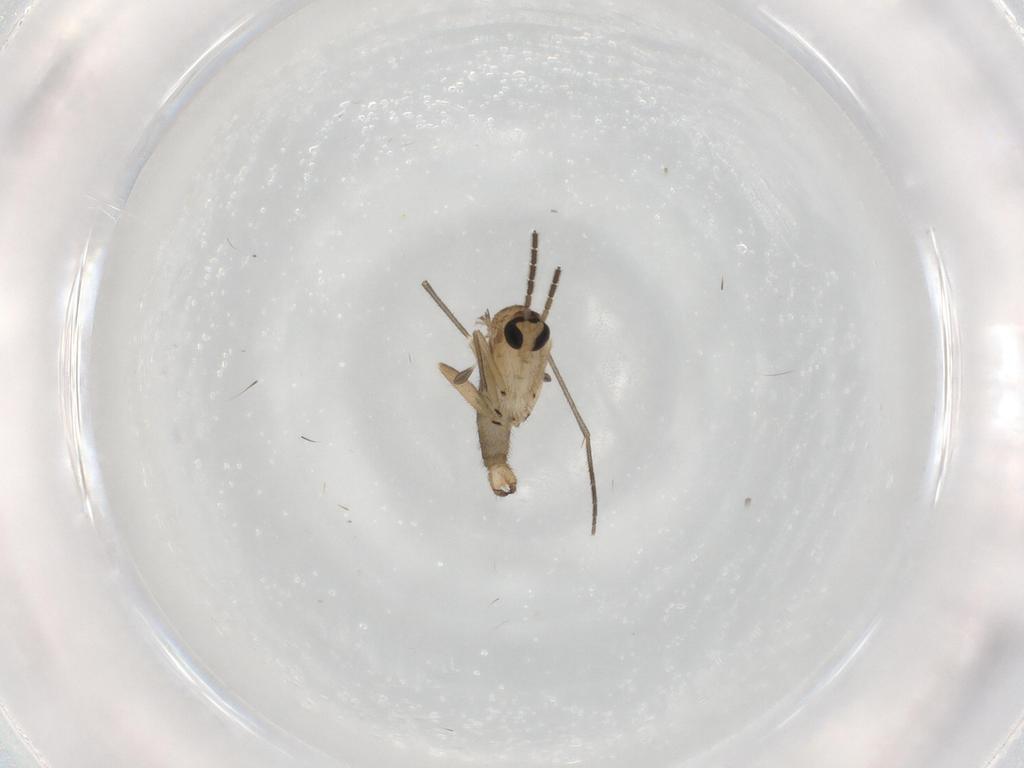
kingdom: Animalia
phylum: Arthropoda
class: Insecta
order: Diptera
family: Sciaridae
